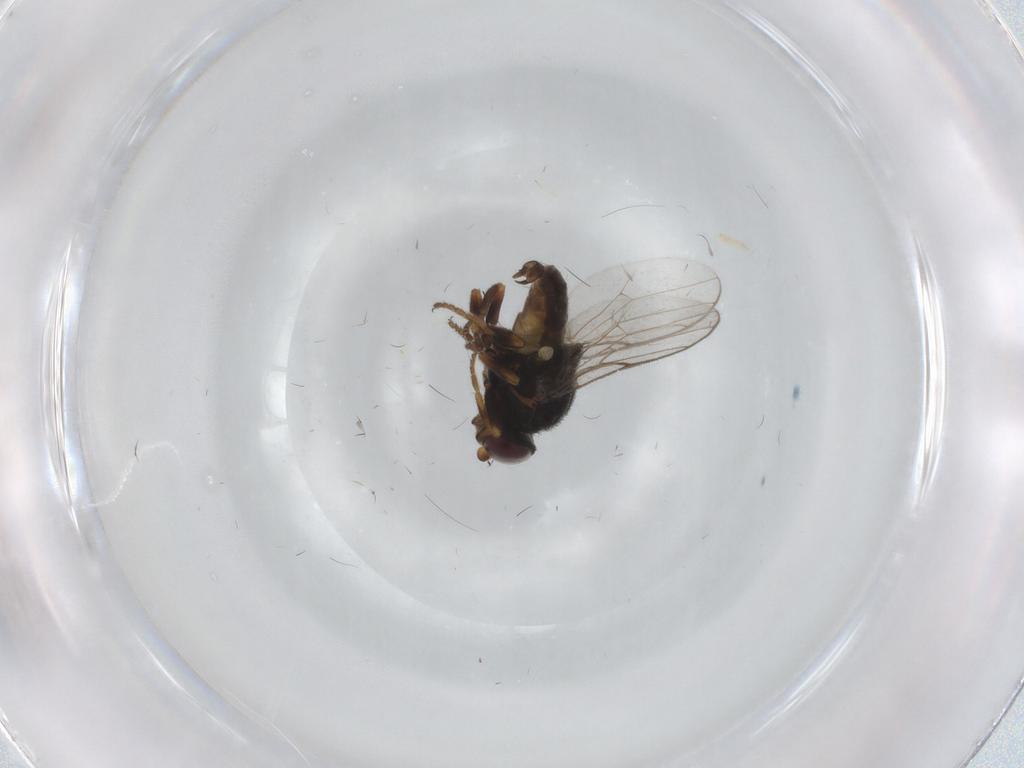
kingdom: Animalia
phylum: Arthropoda
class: Insecta
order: Diptera
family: Chloropidae
